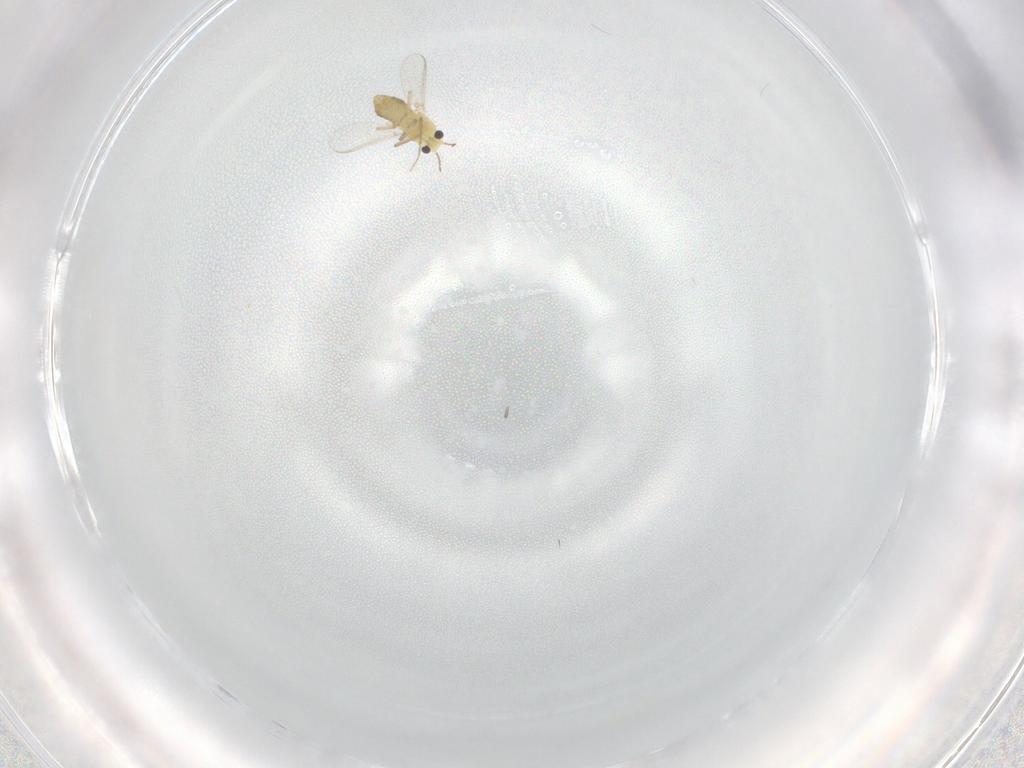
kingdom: Animalia
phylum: Arthropoda
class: Insecta
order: Diptera
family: Chironomidae
